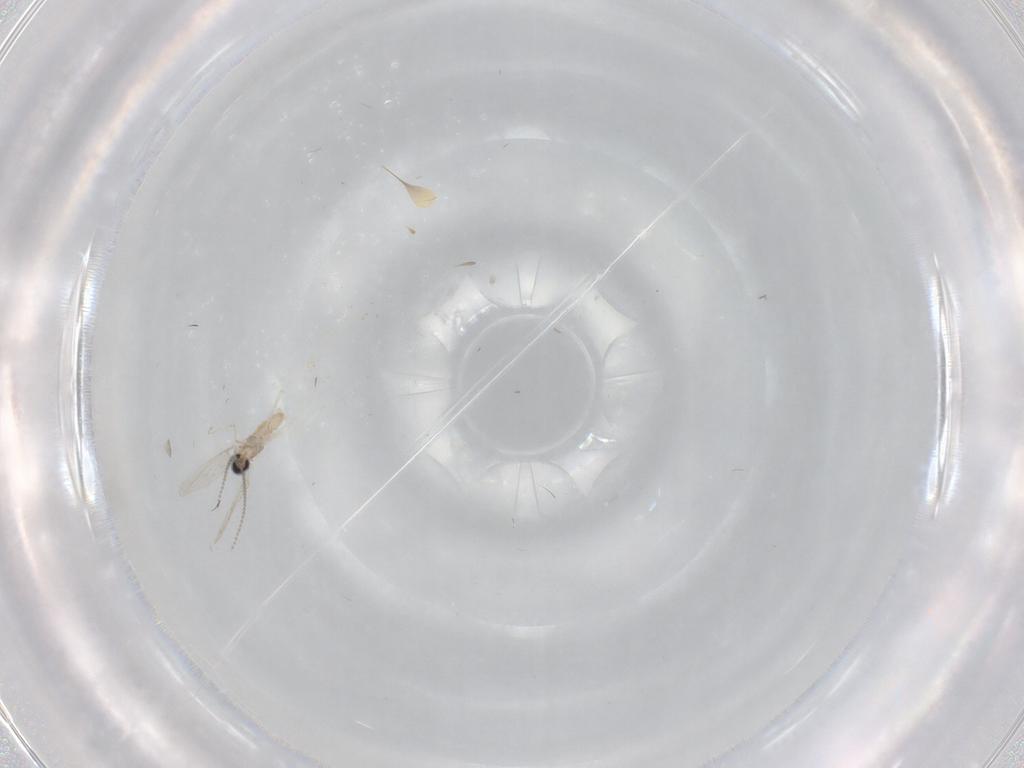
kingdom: Animalia
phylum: Arthropoda
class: Insecta
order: Diptera
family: Cecidomyiidae
